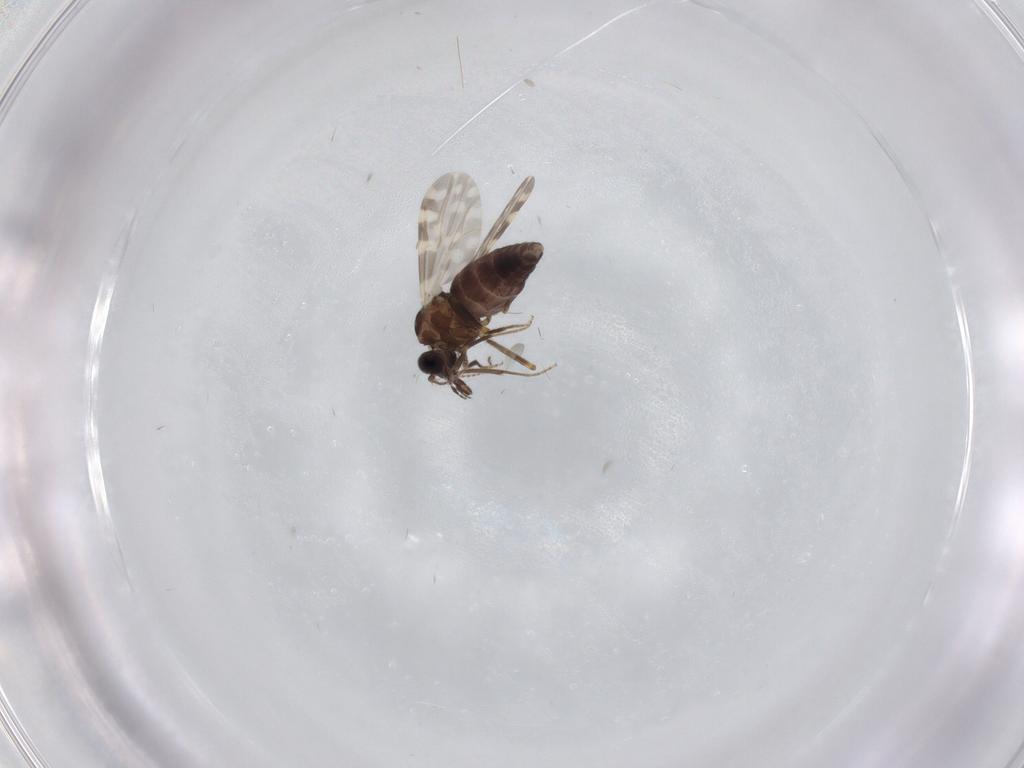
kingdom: Animalia
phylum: Arthropoda
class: Insecta
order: Diptera
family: Ceratopogonidae
